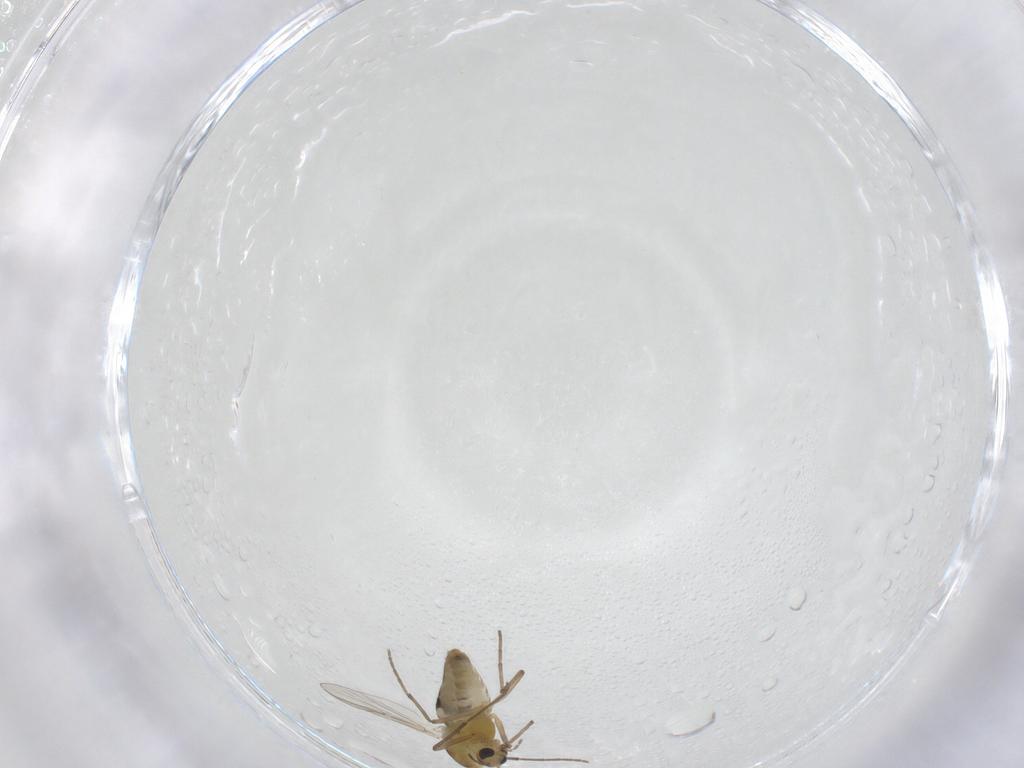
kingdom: Animalia
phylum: Arthropoda
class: Insecta
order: Diptera
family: Chironomidae
